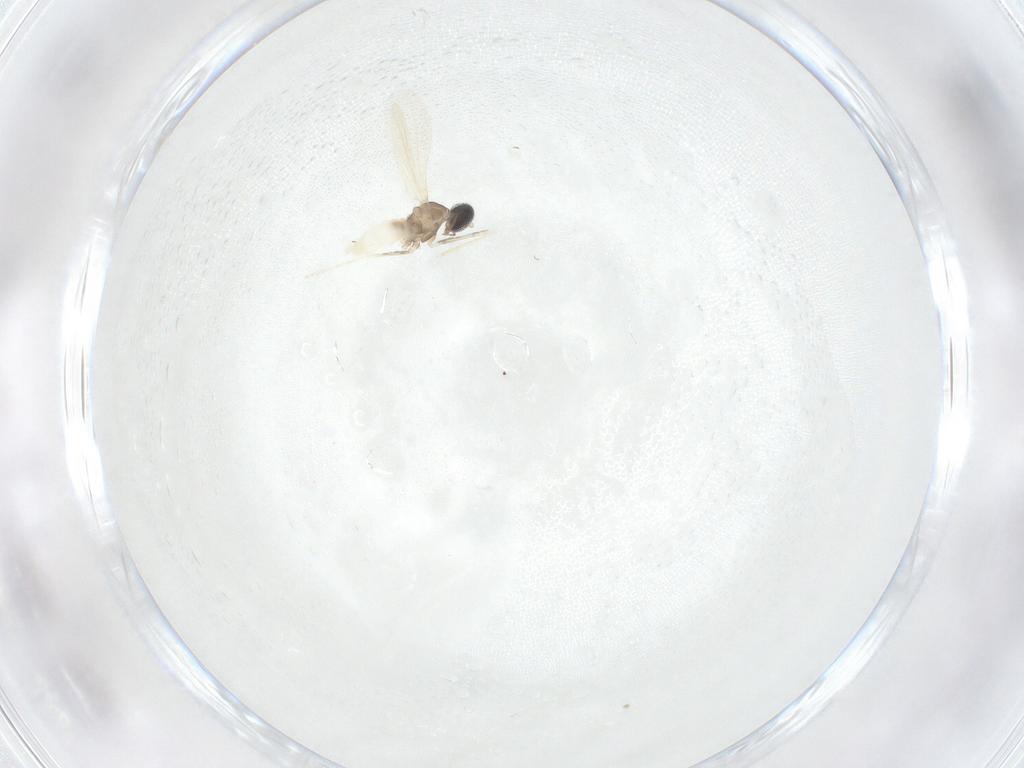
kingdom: Animalia
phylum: Arthropoda
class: Insecta
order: Diptera
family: Cecidomyiidae
